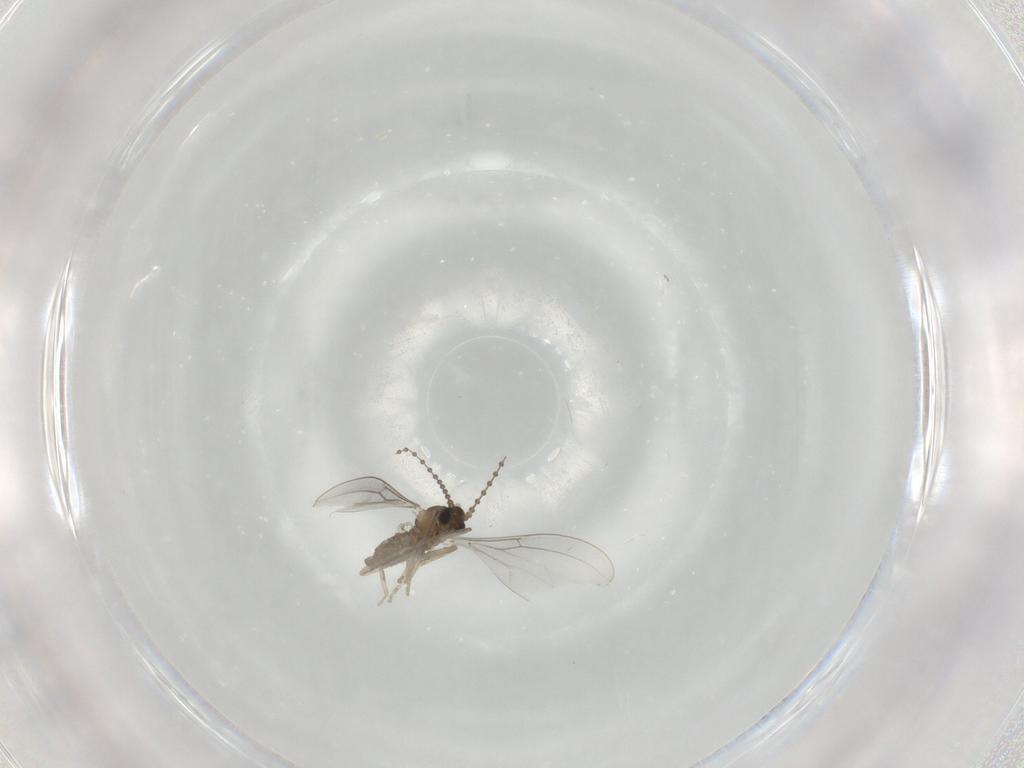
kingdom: Animalia
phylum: Arthropoda
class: Insecta
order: Diptera
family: Cecidomyiidae
